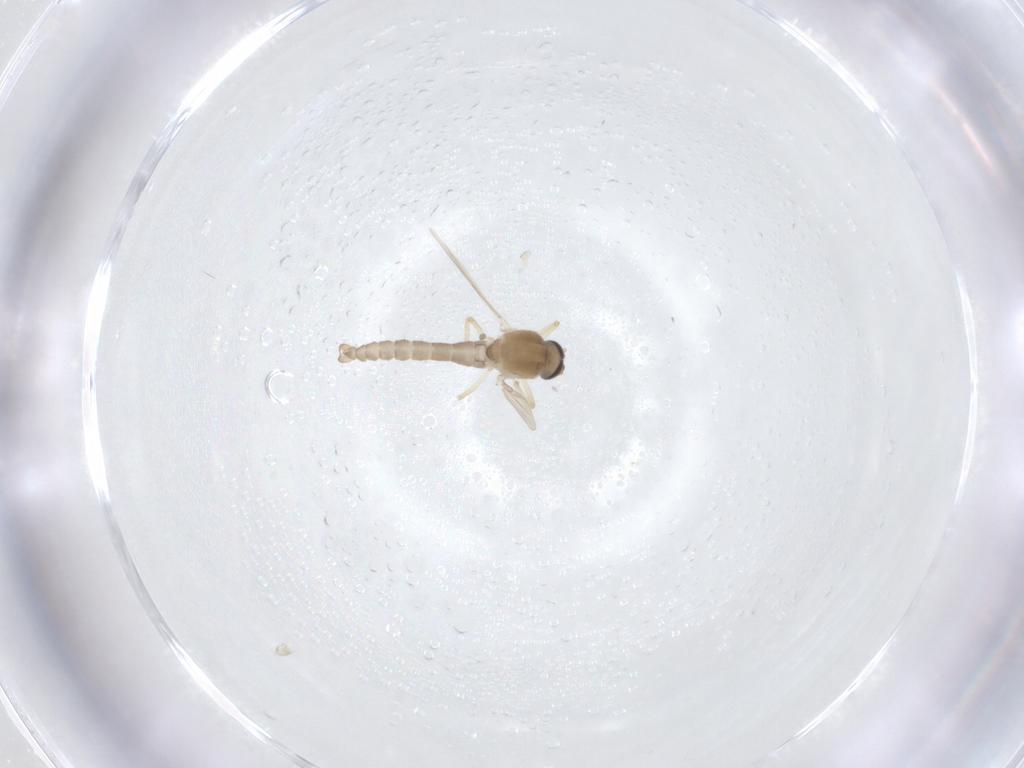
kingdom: Animalia
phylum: Arthropoda
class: Insecta
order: Diptera
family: Ceratopogonidae
